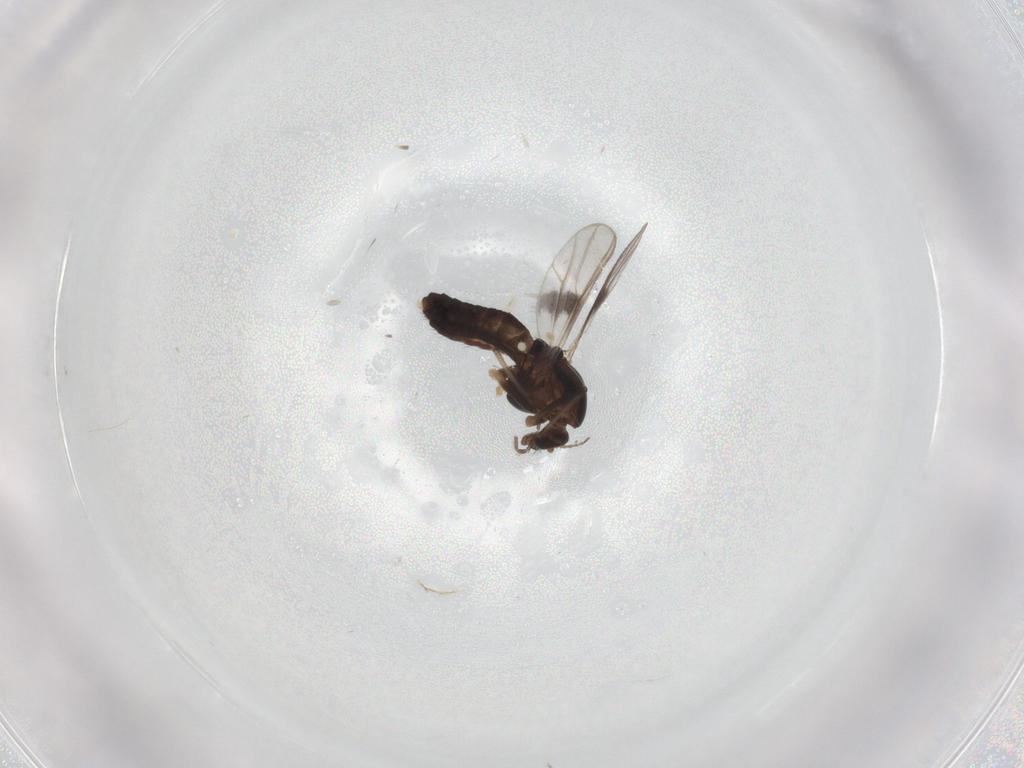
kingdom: Animalia
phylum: Arthropoda
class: Insecta
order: Diptera
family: Chironomidae
